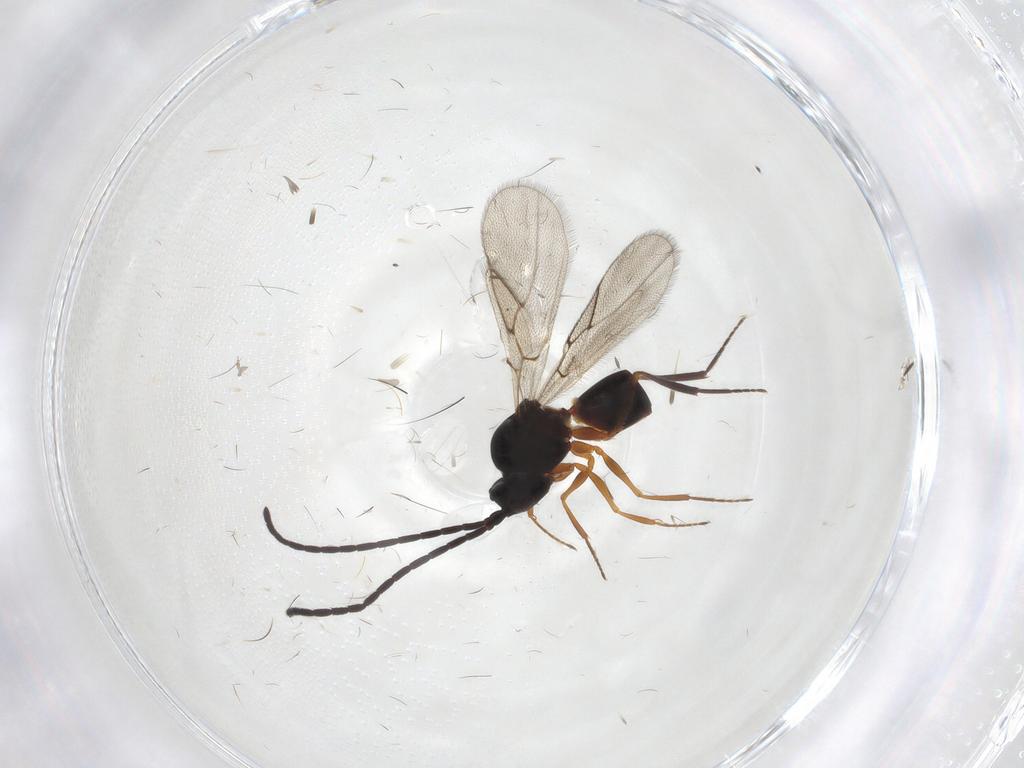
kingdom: Animalia
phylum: Arthropoda
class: Insecta
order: Hymenoptera
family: Figitidae
